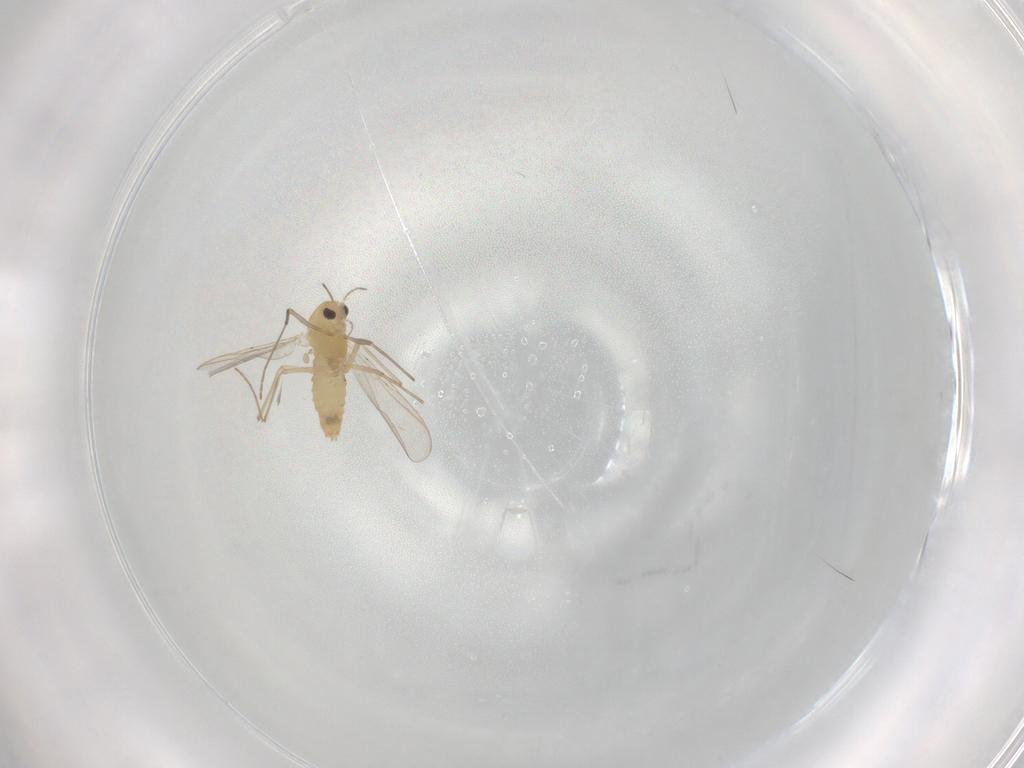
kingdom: Animalia
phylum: Arthropoda
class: Insecta
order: Diptera
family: Chironomidae
